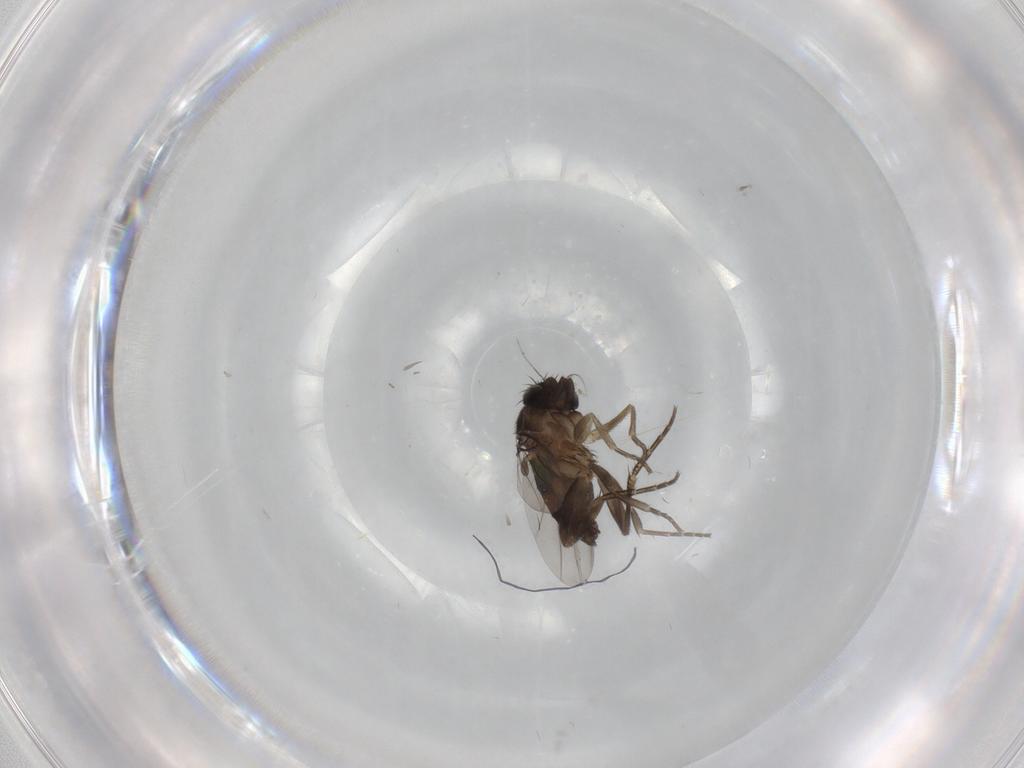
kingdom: Animalia
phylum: Arthropoda
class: Insecta
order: Diptera
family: Phoridae
